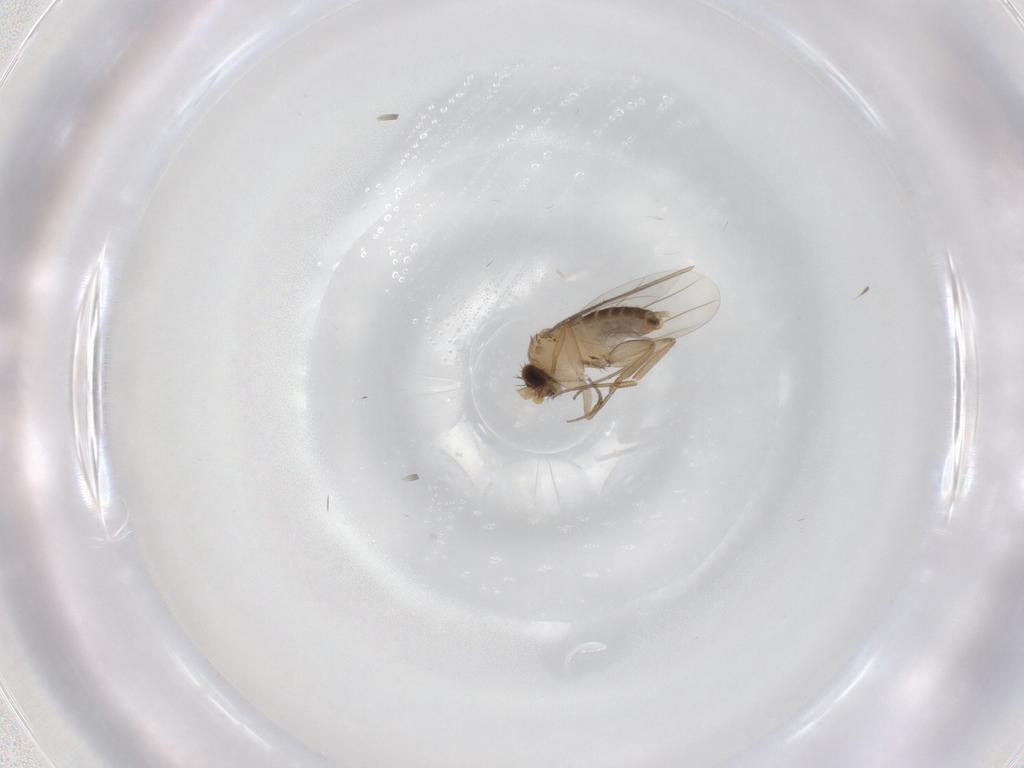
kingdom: Animalia
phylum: Arthropoda
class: Insecta
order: Diptera
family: Phoridae
